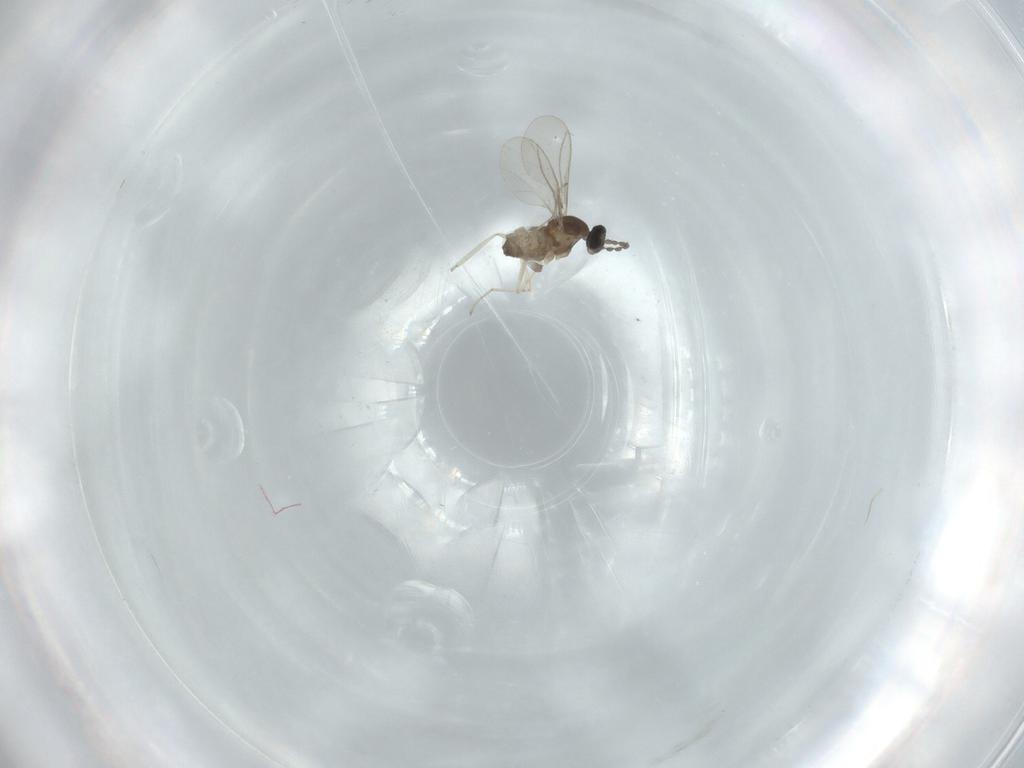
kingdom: Animalia
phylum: Arthropoda
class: Insecta
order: Diptera
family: Cecidomyiidae
